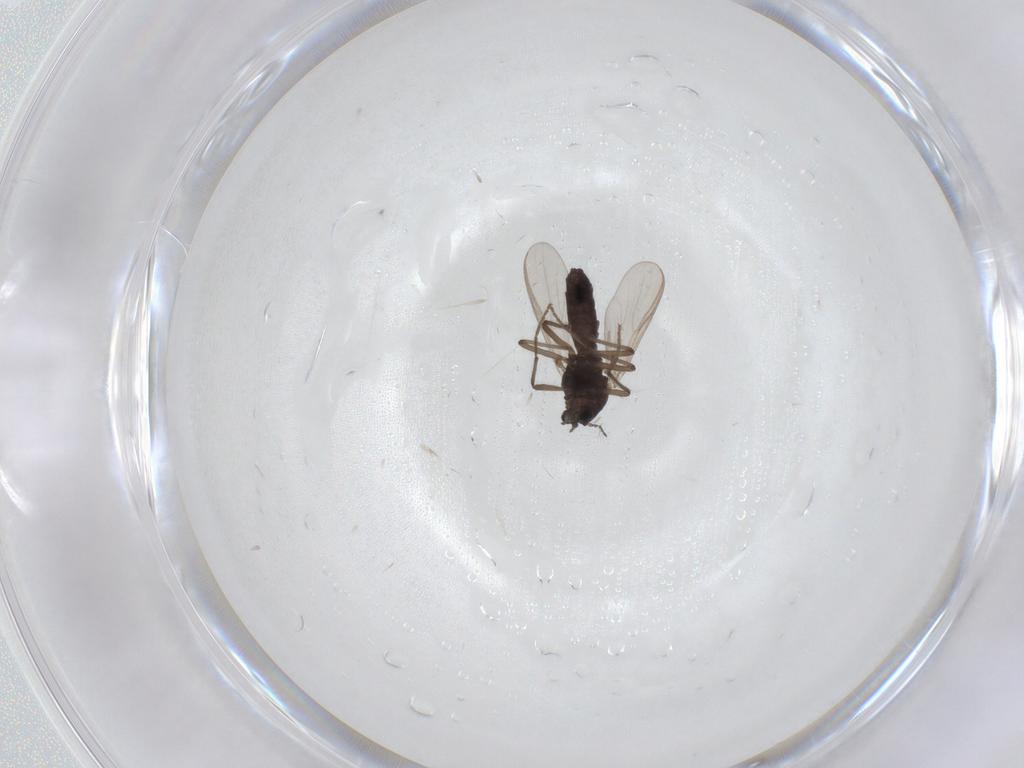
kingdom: Animalia
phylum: Arthropoda
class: Insecta
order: Diptera
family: Chironomidae
